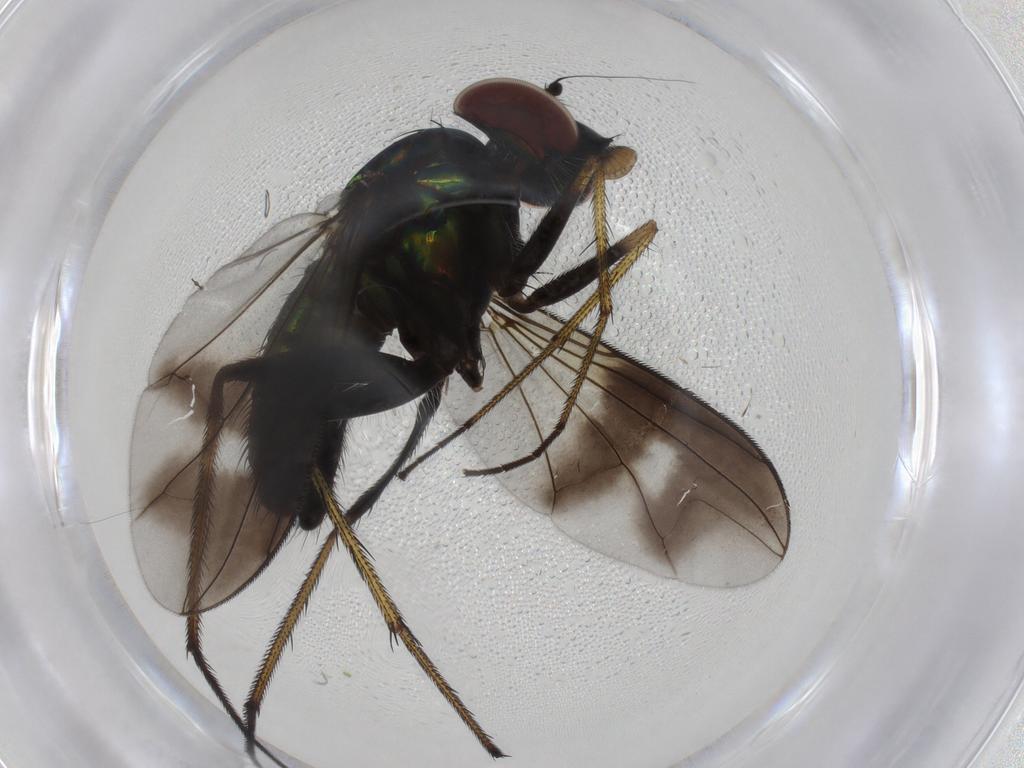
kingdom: Animalia
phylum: Arthropoda
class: Insecta
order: Diptera
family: Dolichopodidae
